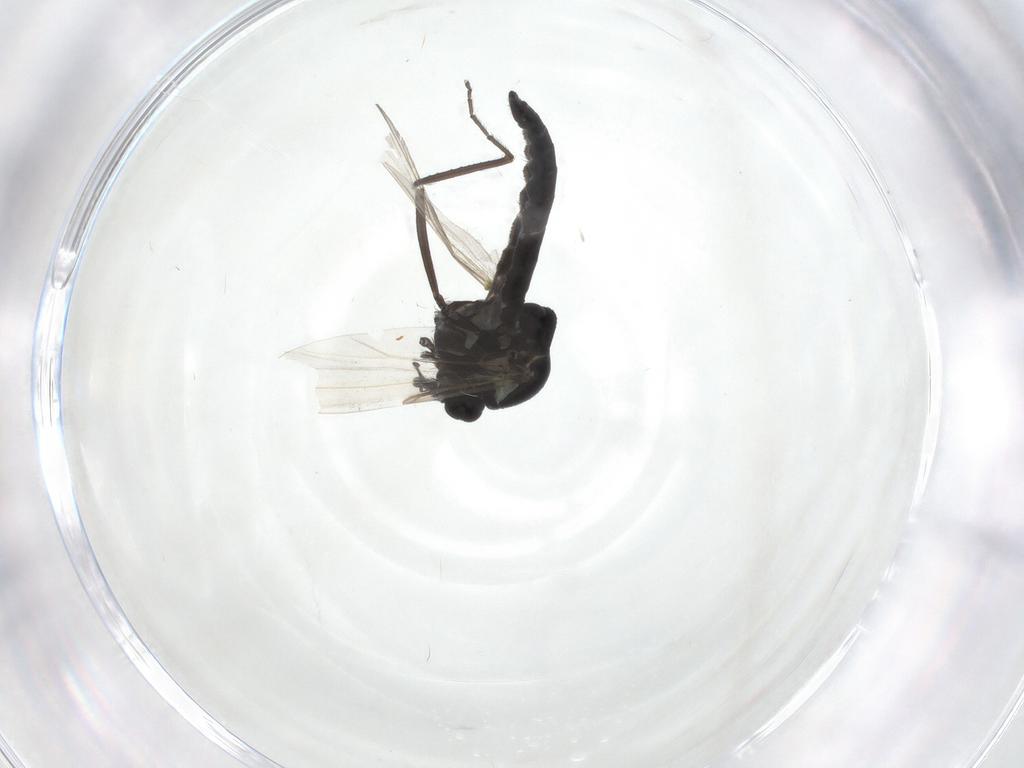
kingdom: Animalia
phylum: Arthropoda
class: Insecta
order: Diptera
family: Ceratopogonidae
